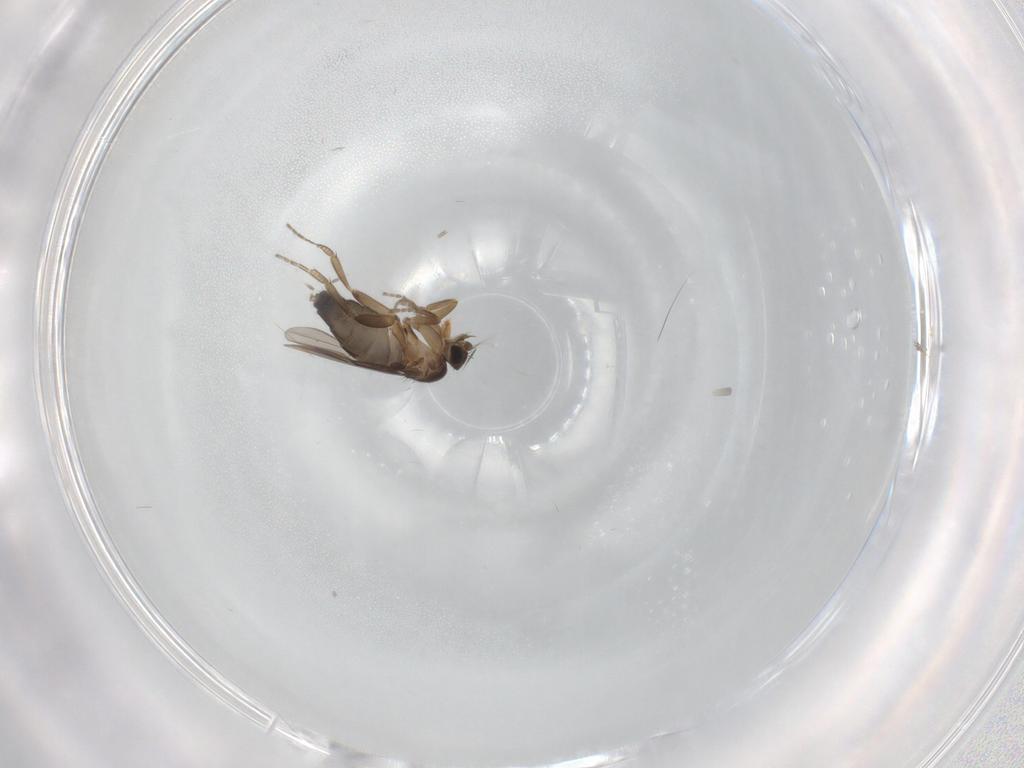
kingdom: Animalia
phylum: Arthropoda
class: Insecta
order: Diptera
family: Phoridae
